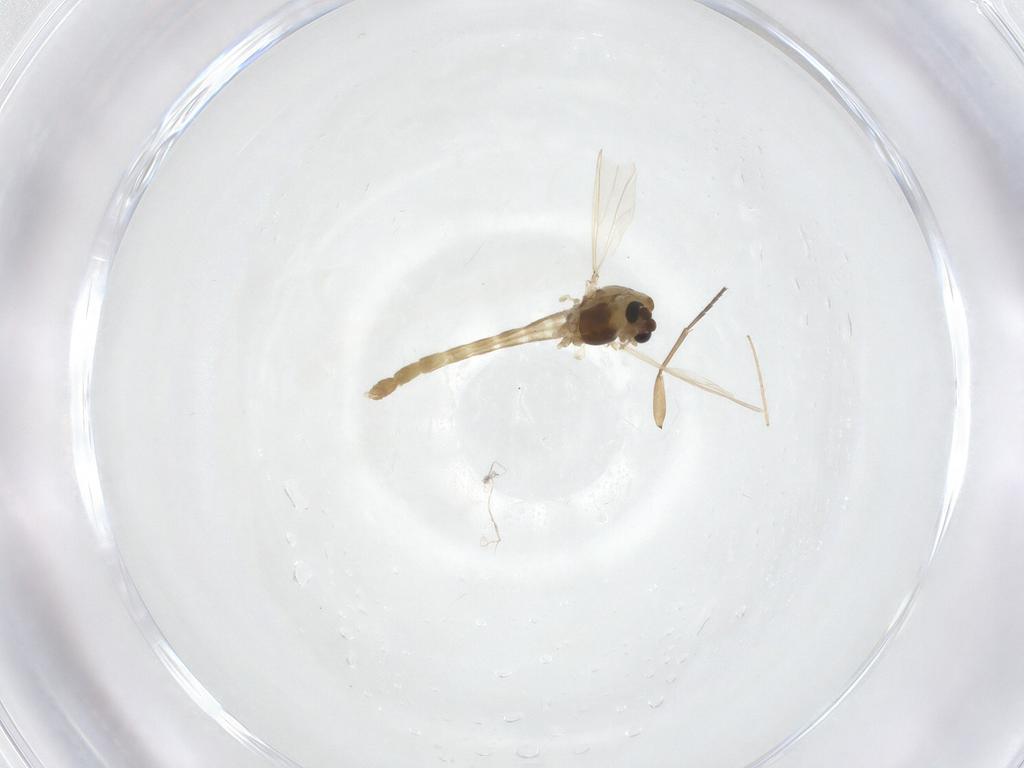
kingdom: Animalia
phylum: Arthropoda
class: Insecta
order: Diptera
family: Chironomidae
